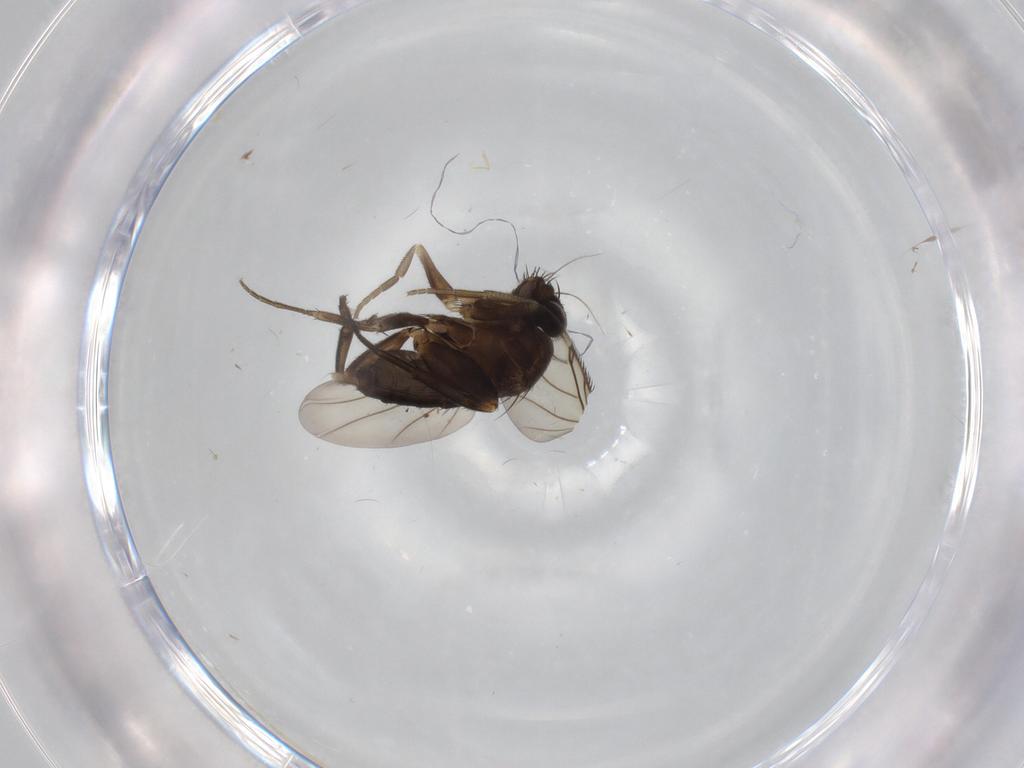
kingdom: Animalia
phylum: Arthropoda
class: Insecta
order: Diptera
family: Phoridae
